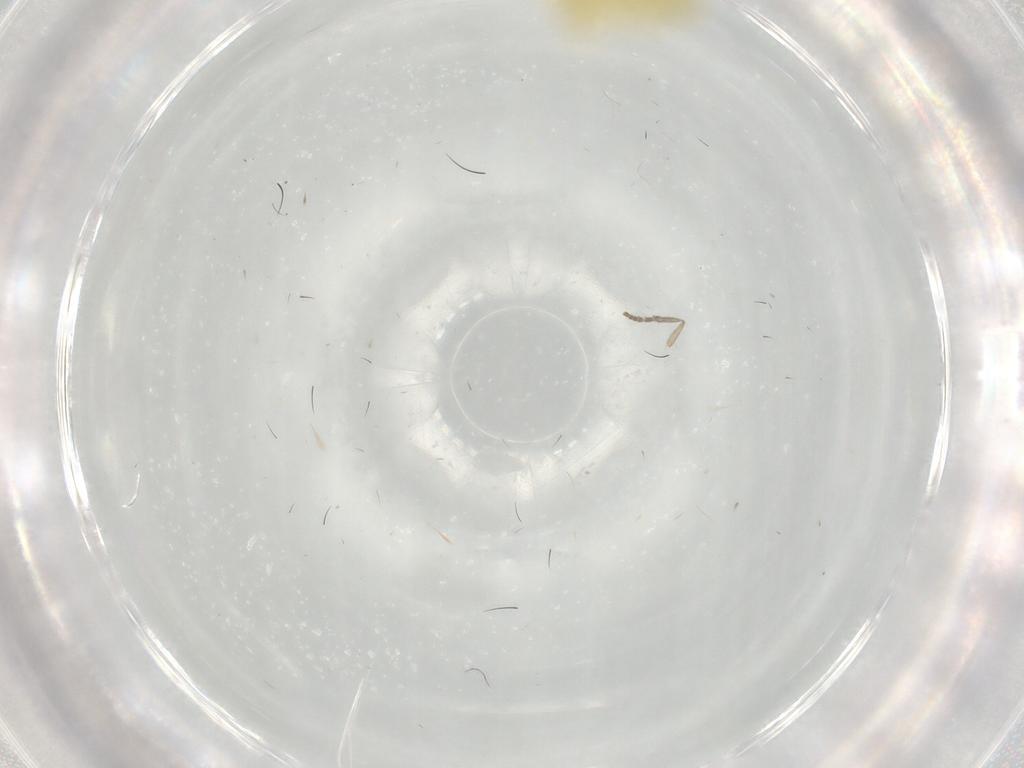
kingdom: Animalia
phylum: Arthropoda
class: Insecta
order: Hemiptera
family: Cicadellidae
